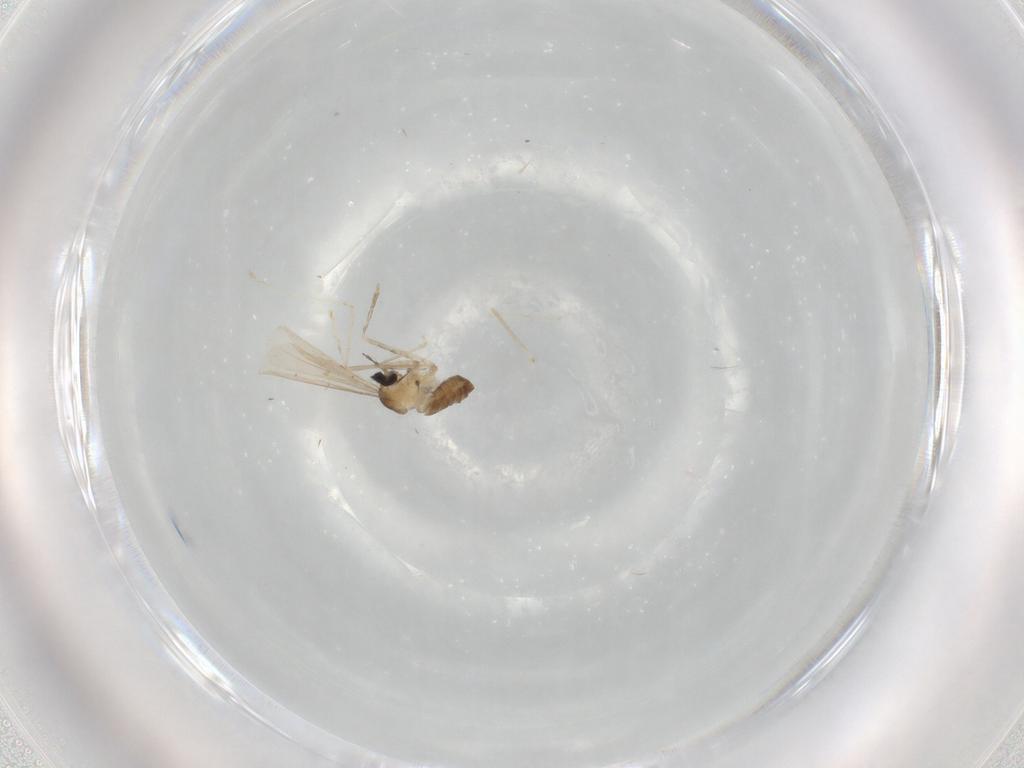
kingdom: Animalia
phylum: Arthropoda
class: Insecta
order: Diptera
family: Cecidomyiidae
